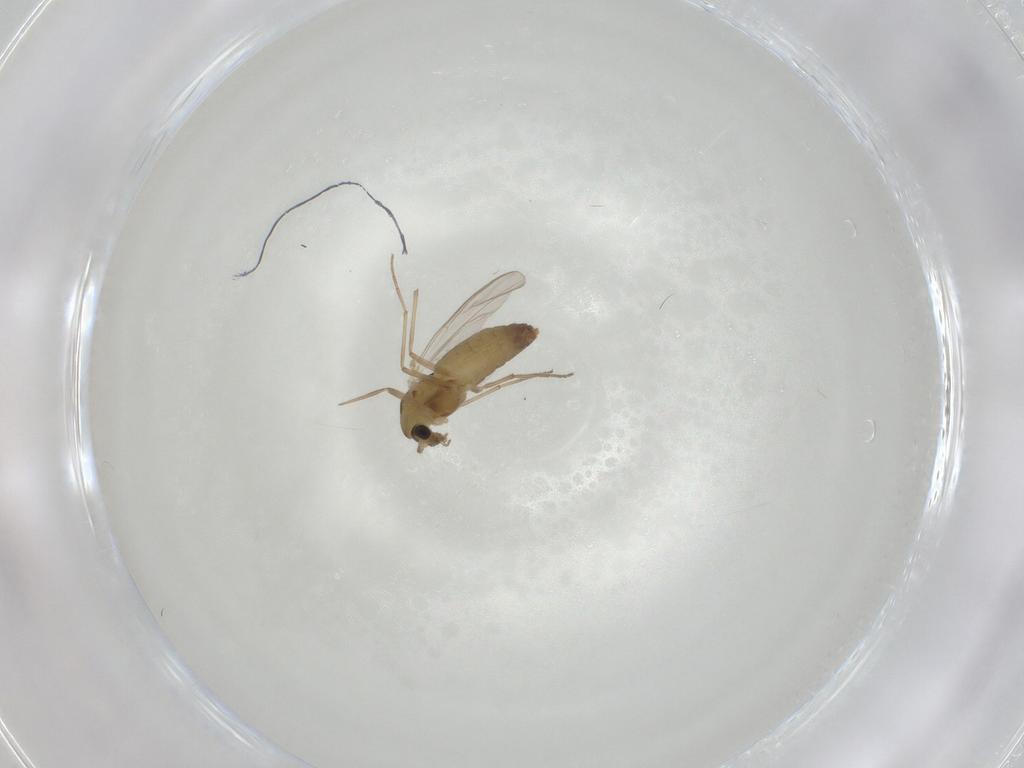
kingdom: Animalia
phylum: Arthropoda
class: Insecta
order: Diptera
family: Chironomidae
